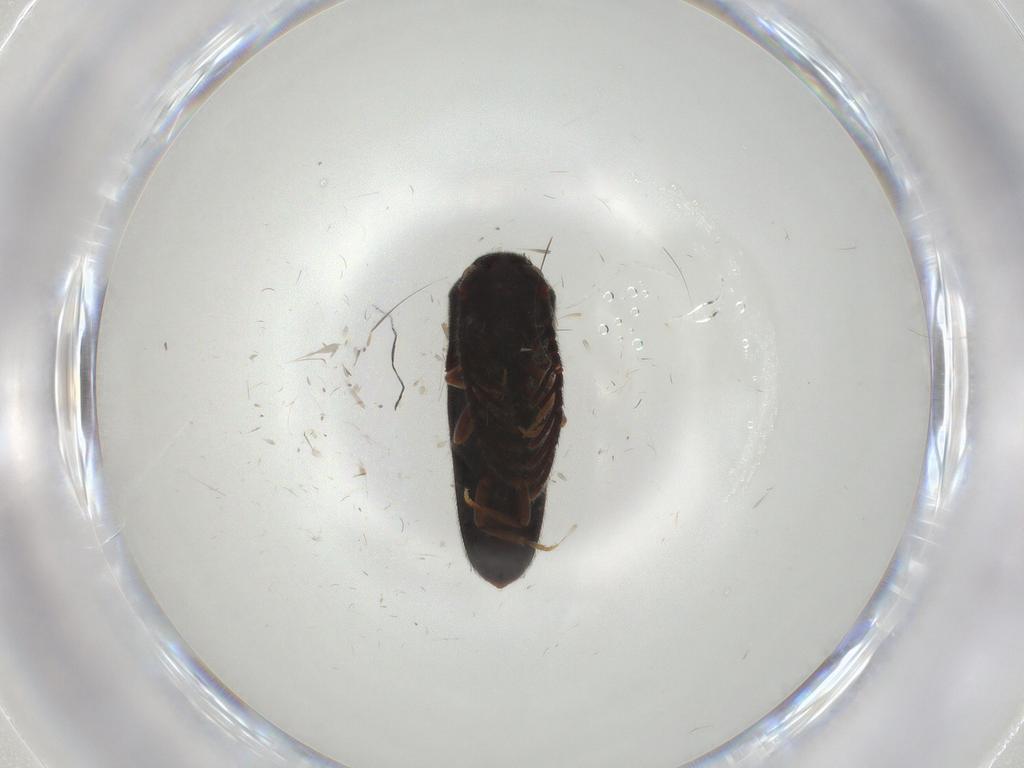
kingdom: Animalia
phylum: Arthropoda
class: Insecta
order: Coleoptera
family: Eucnemidae
